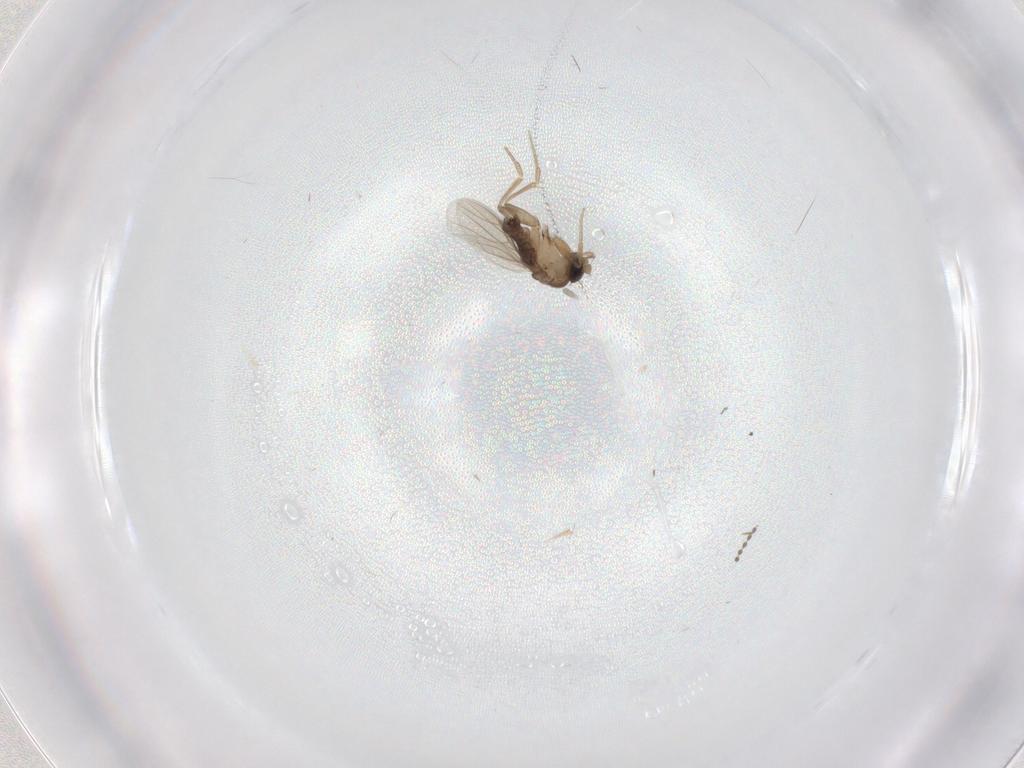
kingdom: Animalia
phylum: Arthropoda
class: Insecta
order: Diptera
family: Phoridae
